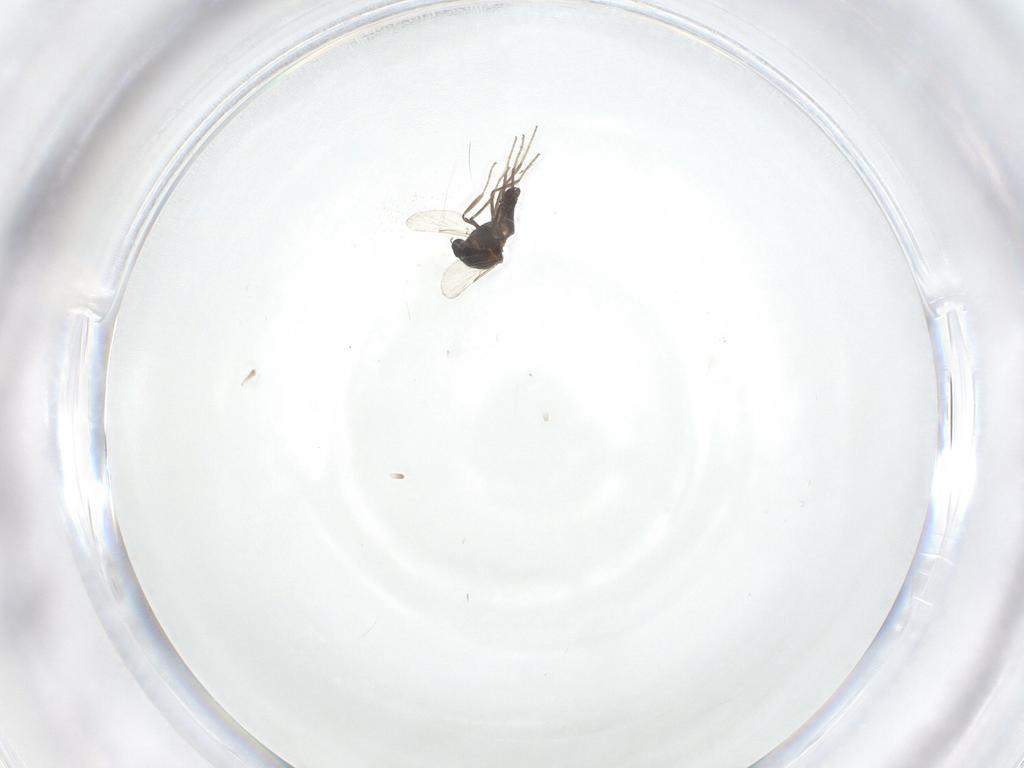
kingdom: Animalia
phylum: Arthropoda
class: Insecta
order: Diptera
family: Ceratopogonidae
